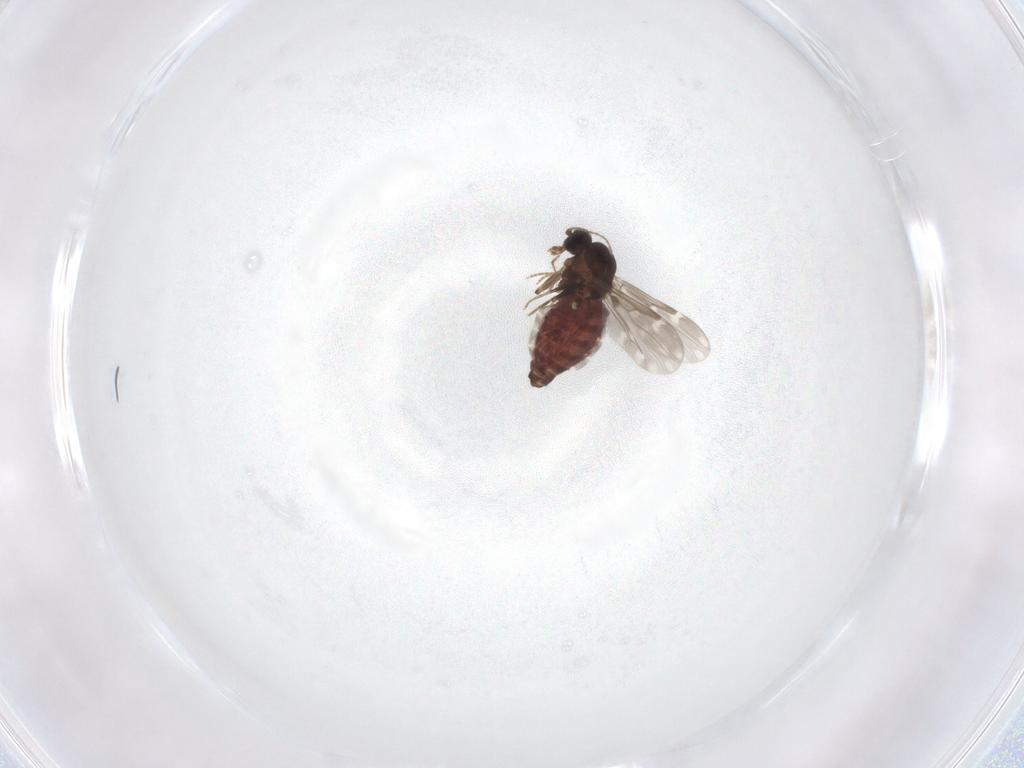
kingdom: Animalia
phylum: Arthropoda
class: Insecta
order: Diptera
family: Ceratopogonidae
